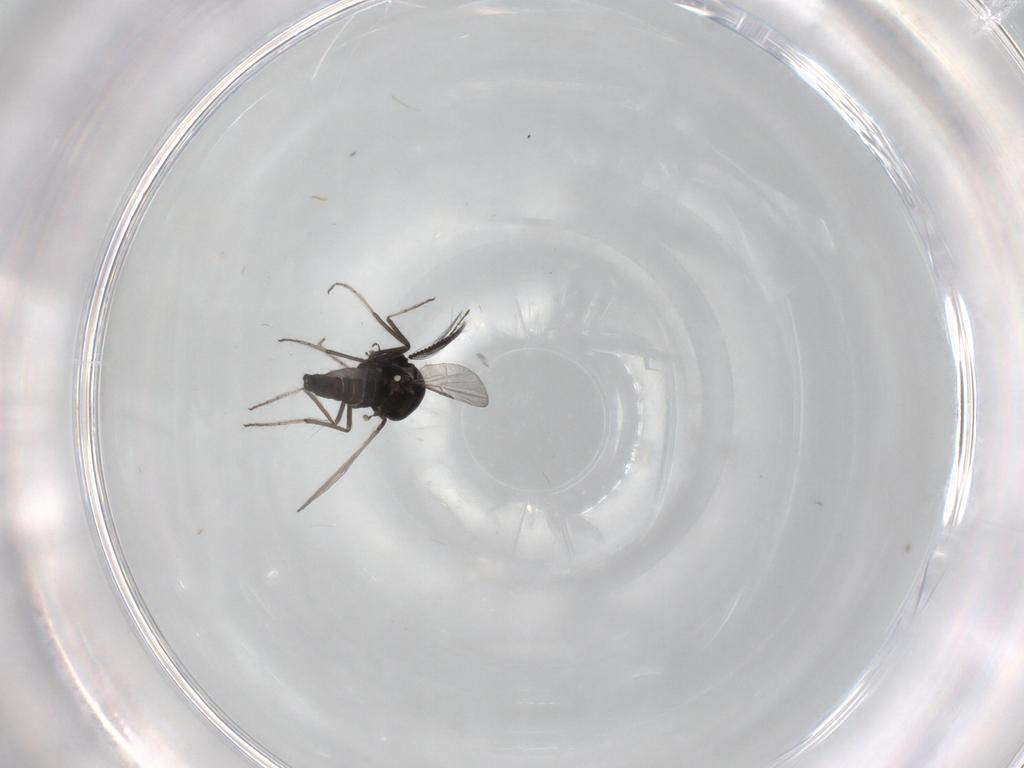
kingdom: Animalia
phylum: Arthropoda
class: Insecta
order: Diptera
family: Ceratopogonidae
